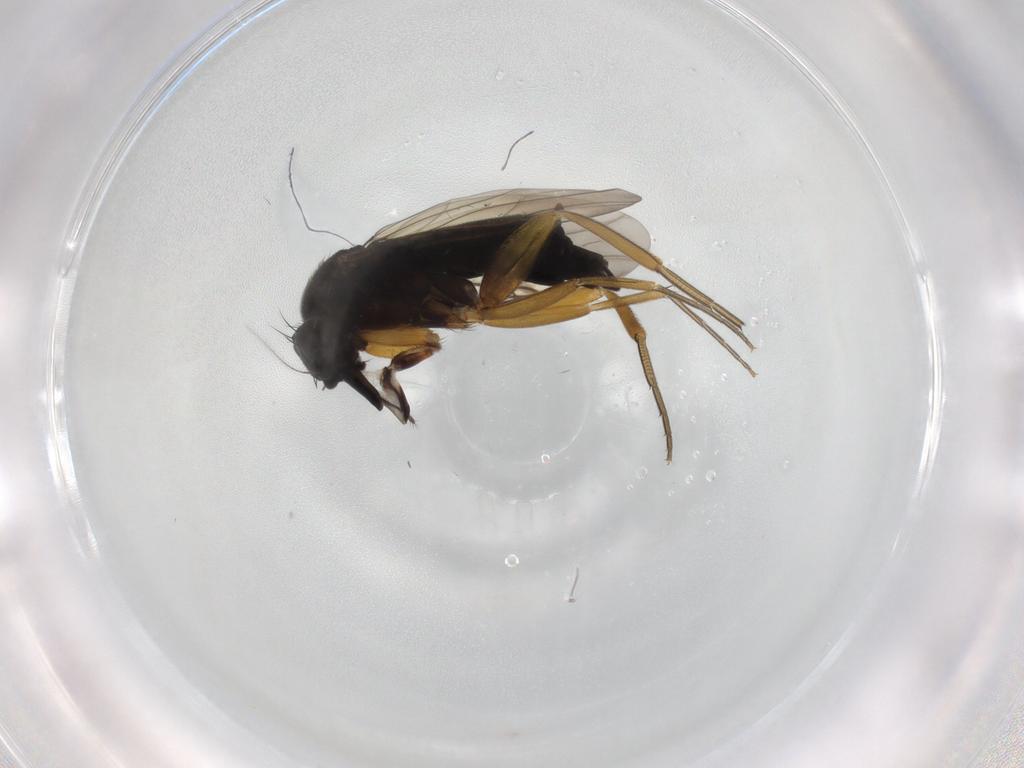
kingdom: Animalia
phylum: Arthropoda
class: Insecta
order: Diptera
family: Phoridae
